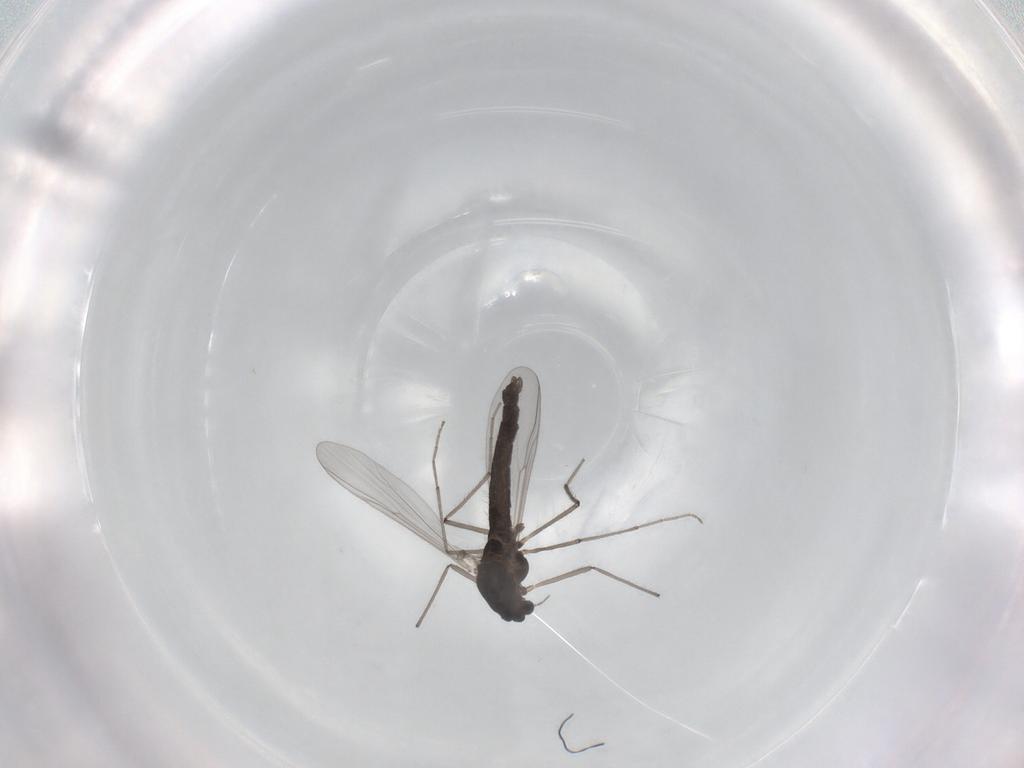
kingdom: Animalia
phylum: Arthropoda
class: Insecta
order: Diptera
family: Chironomidae
